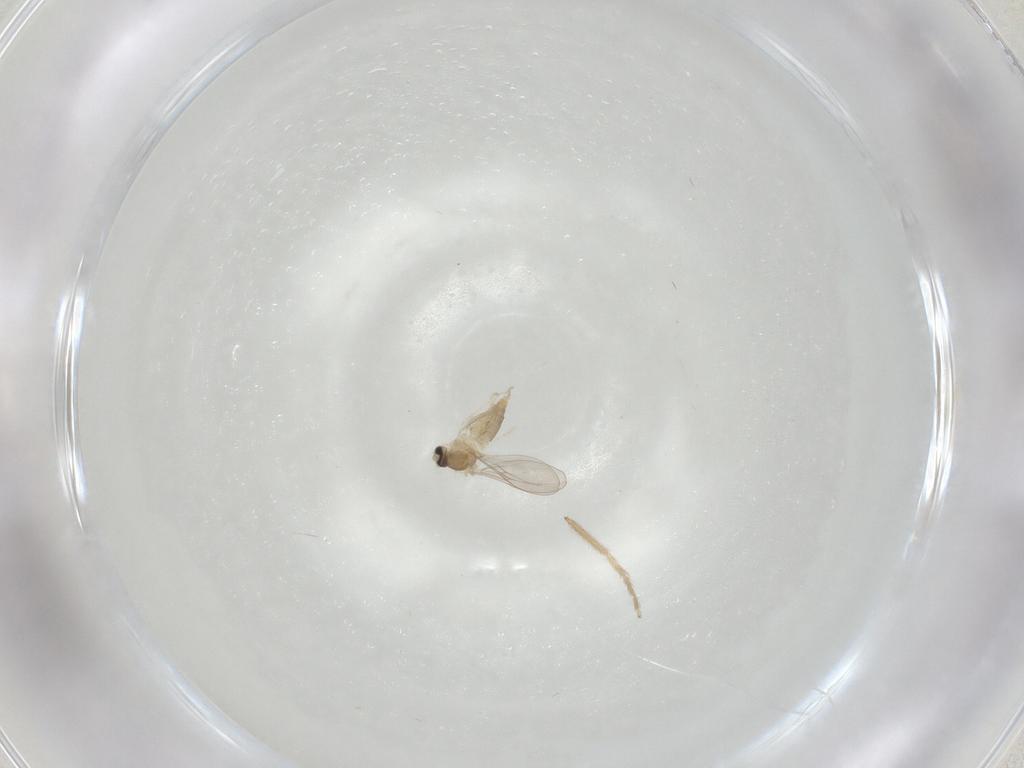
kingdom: Animalia
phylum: Arthropoda
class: Insecta
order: Diptera
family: Cecidomyiidae
